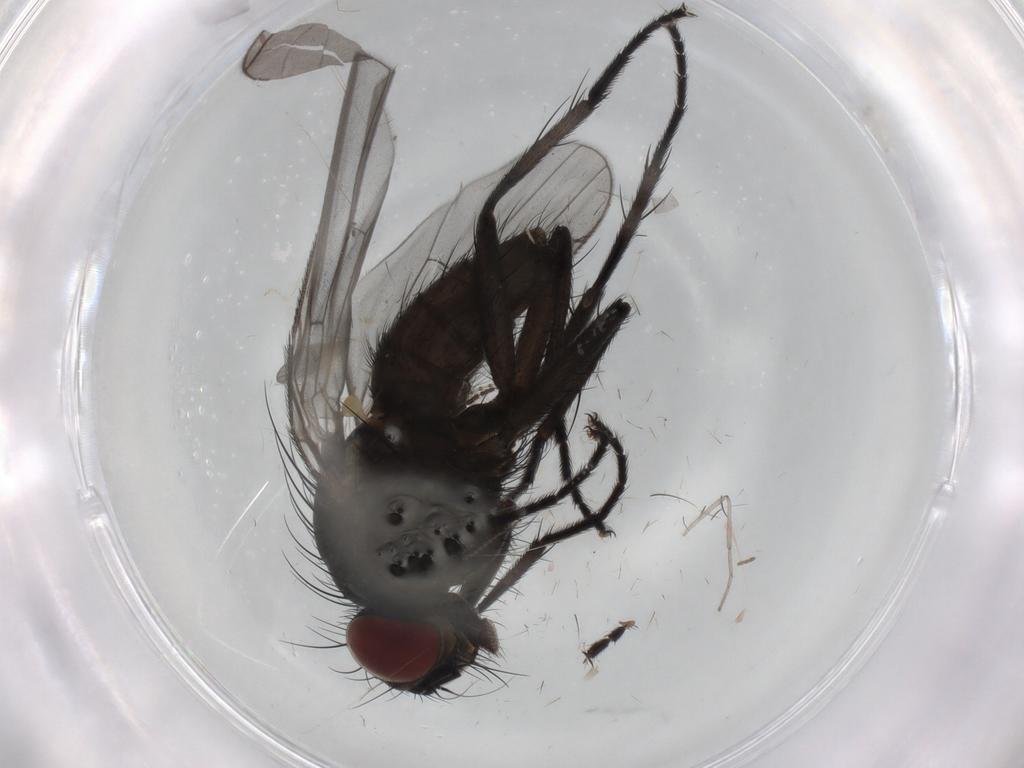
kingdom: Animalia
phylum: Arthropoda
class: Insecta
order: Diptera
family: Muscidae
